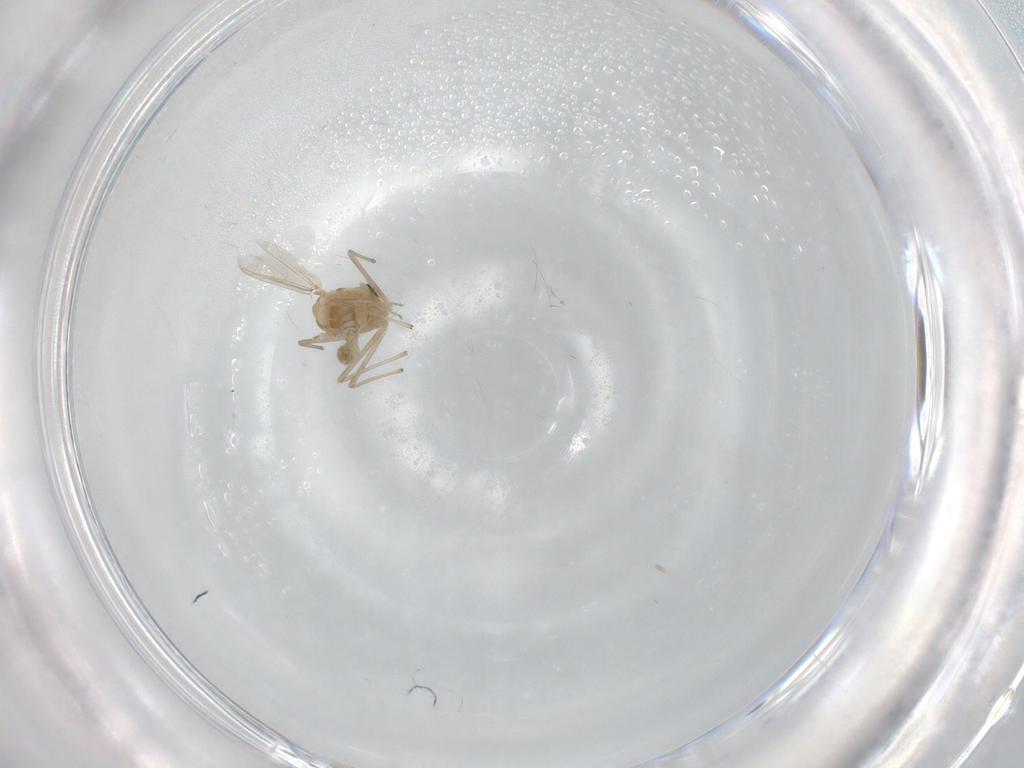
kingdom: Animalia
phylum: Arthropoda
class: Insecta
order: Diptera
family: Chironomidae
